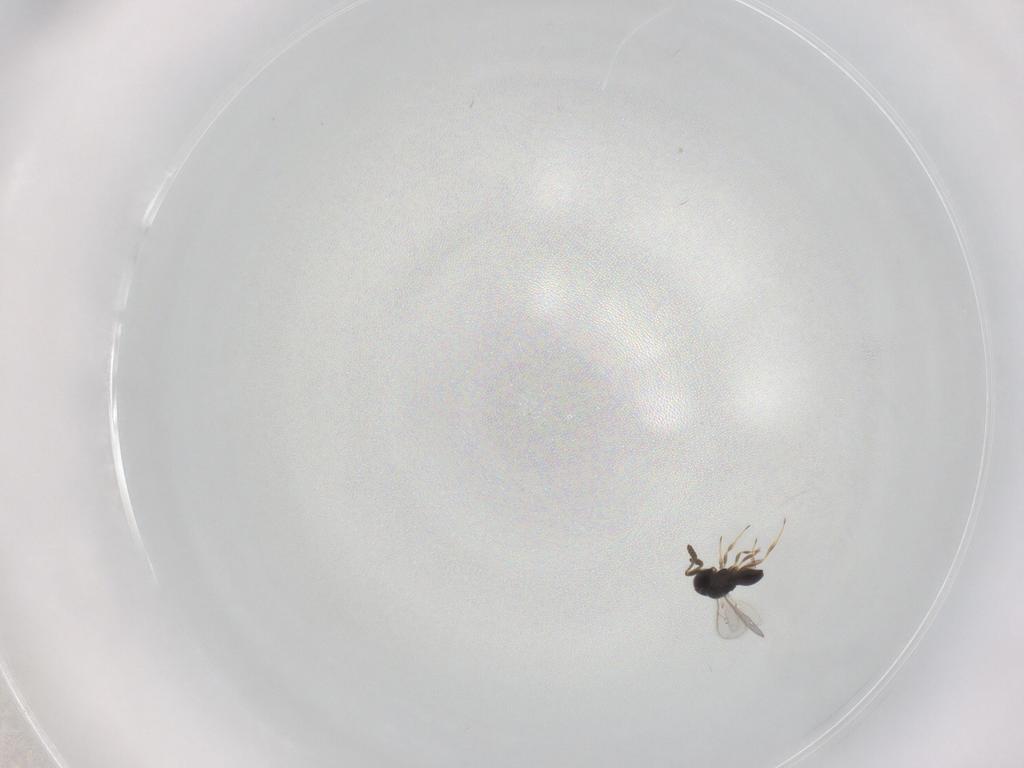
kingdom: Animalia
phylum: Arthropoda
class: Insecta
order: Hymenoptera
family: Scelionidae
